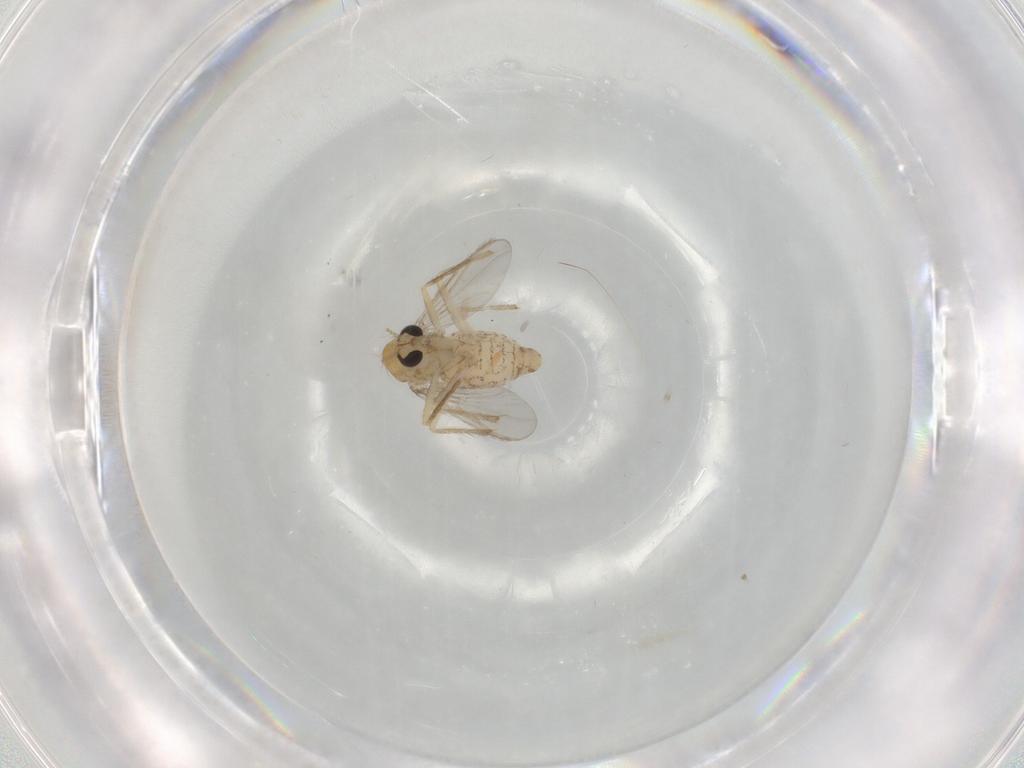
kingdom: Animalia
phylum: Arthropoda
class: Insecta
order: Diptera
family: Chironomidae
